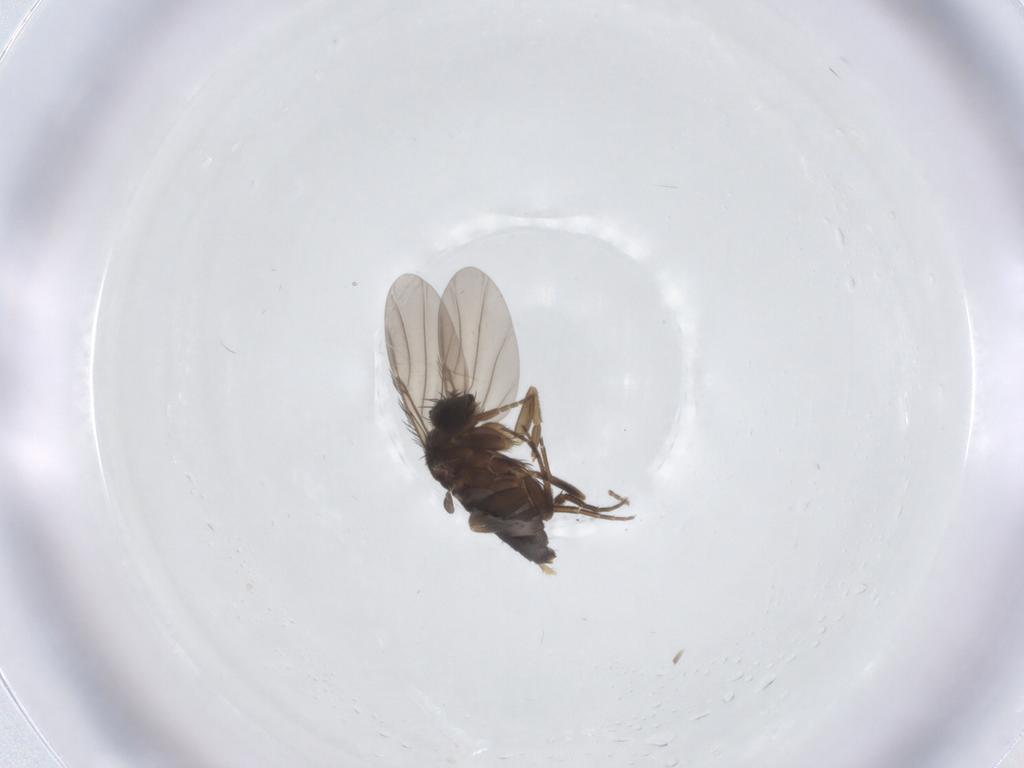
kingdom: Animalia
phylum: Arthropoda
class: Insecta
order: Diptera
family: Phoridae
